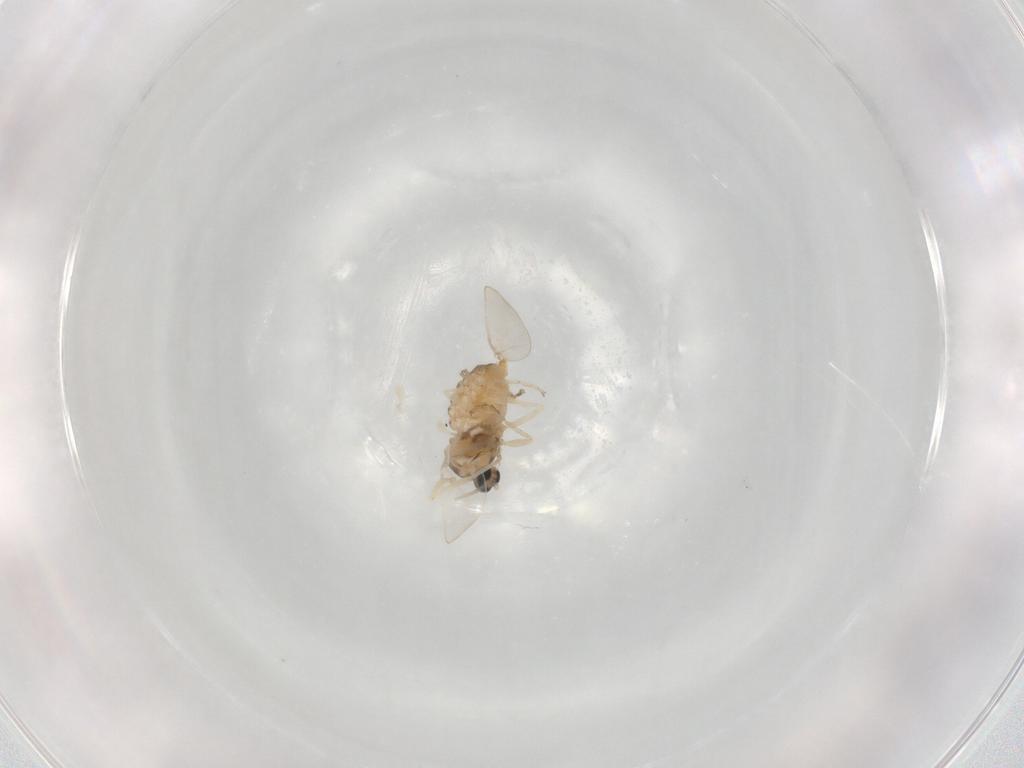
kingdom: Animalia
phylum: Arthropoda
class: Insecta
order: Diptera
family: Cecidomyiidae
